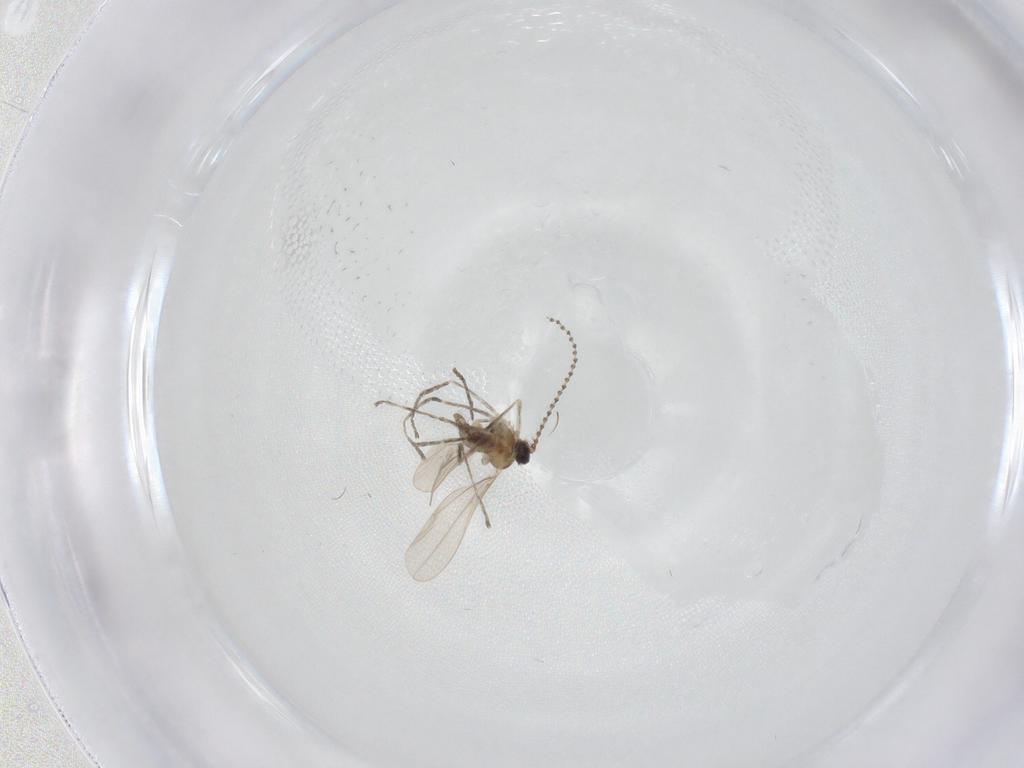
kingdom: Animalia
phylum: Arthropoda
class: Insecta
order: Diptera
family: Cecidomyiidae
